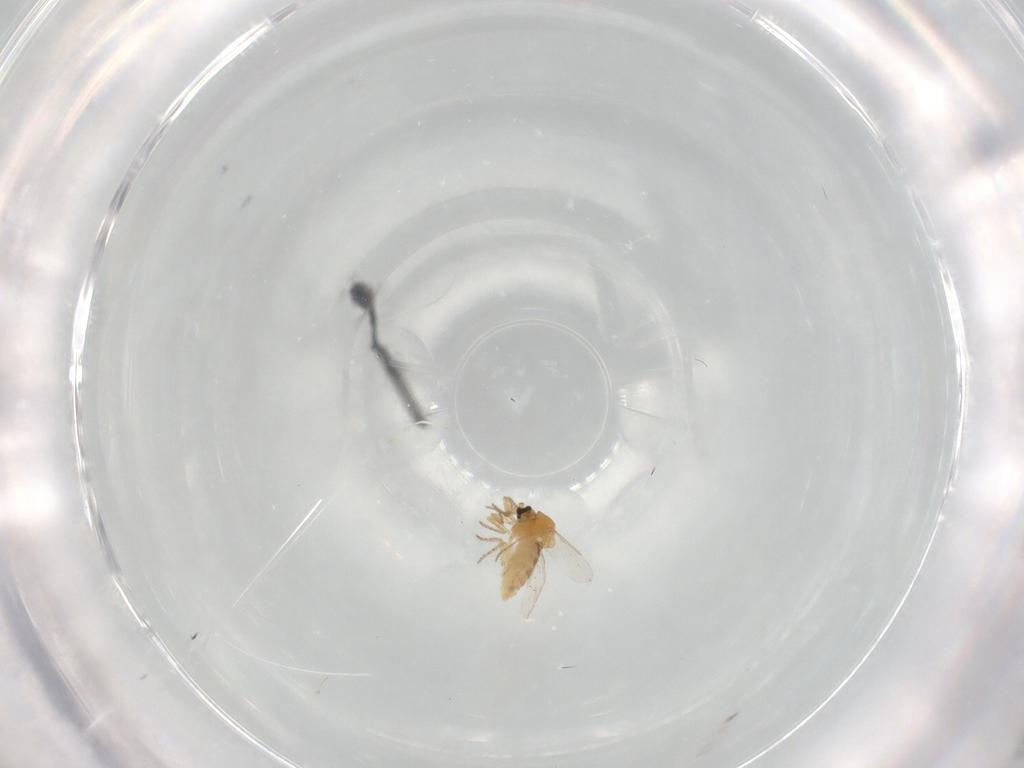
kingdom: Animalia
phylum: Arthropoda
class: Insecta
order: Diptera
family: Ceratopogonidae
